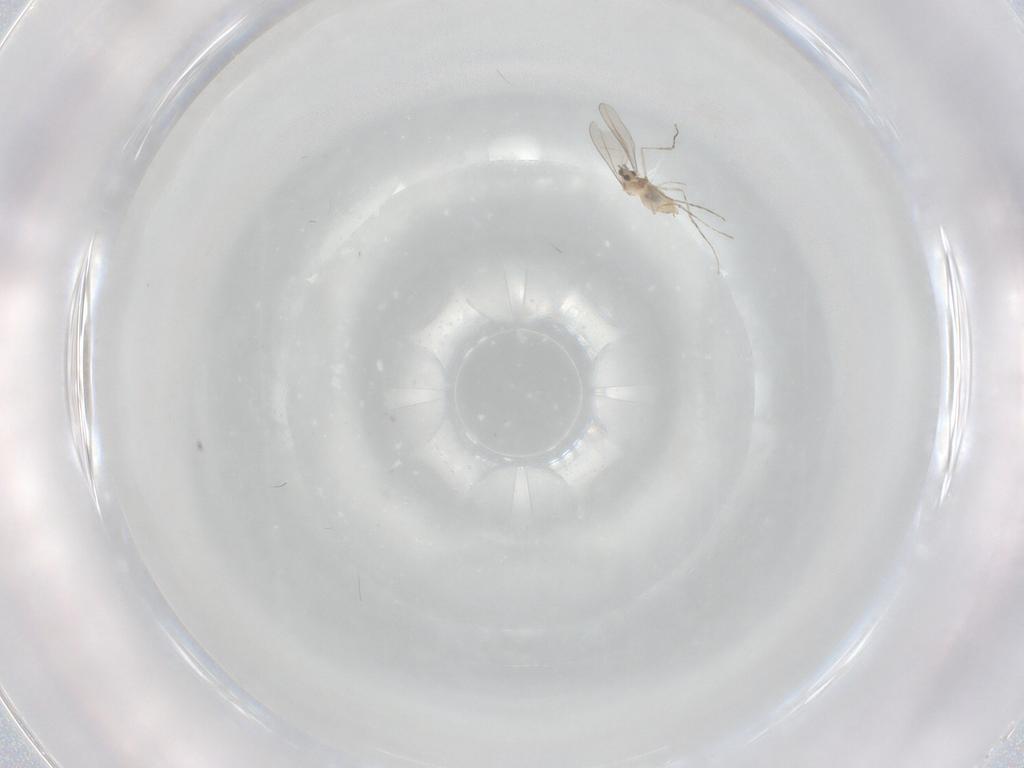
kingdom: Animalia
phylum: Arthropoda
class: Insecta
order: Diptera
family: Cecidomyiidae
